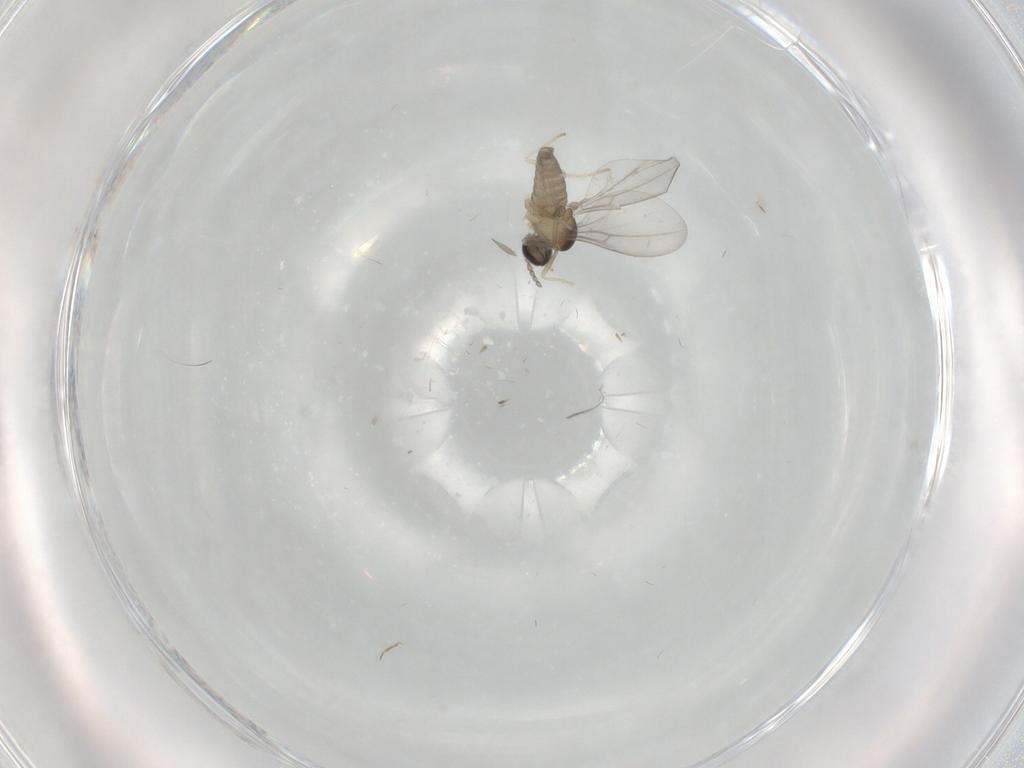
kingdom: Animalia
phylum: Arthropoda
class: Insecta
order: Diptera
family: Cecidomyiidae
